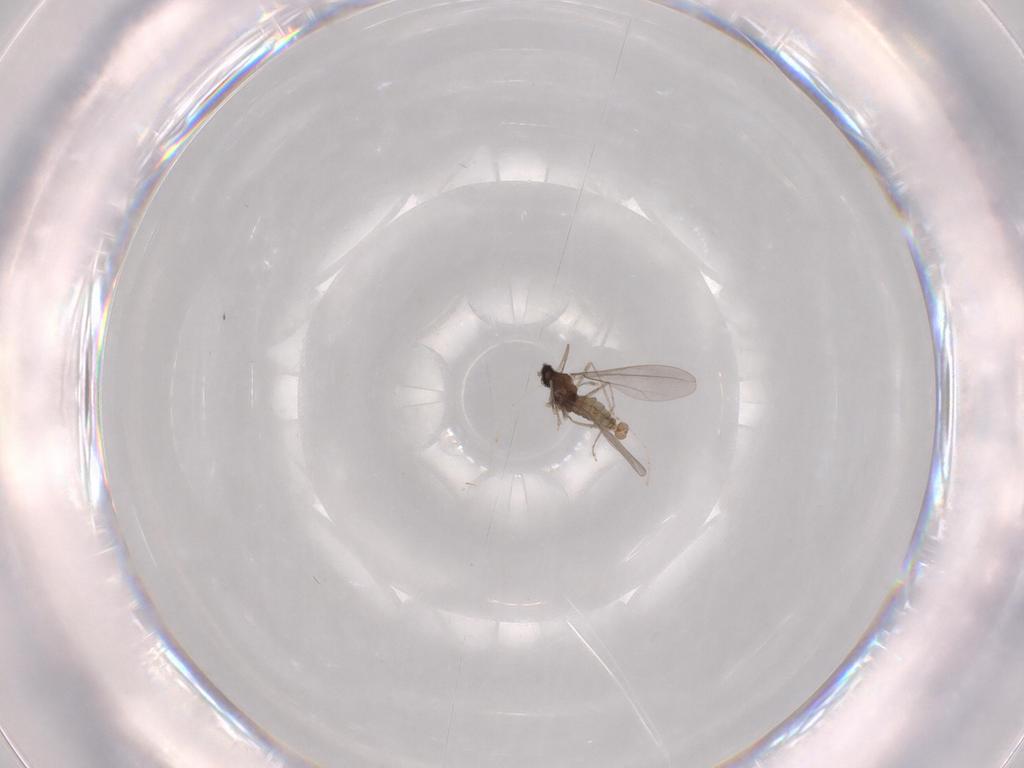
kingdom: Animalia
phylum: Arthropoda
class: Insecta
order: Diptera
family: Cecidomyiidae
